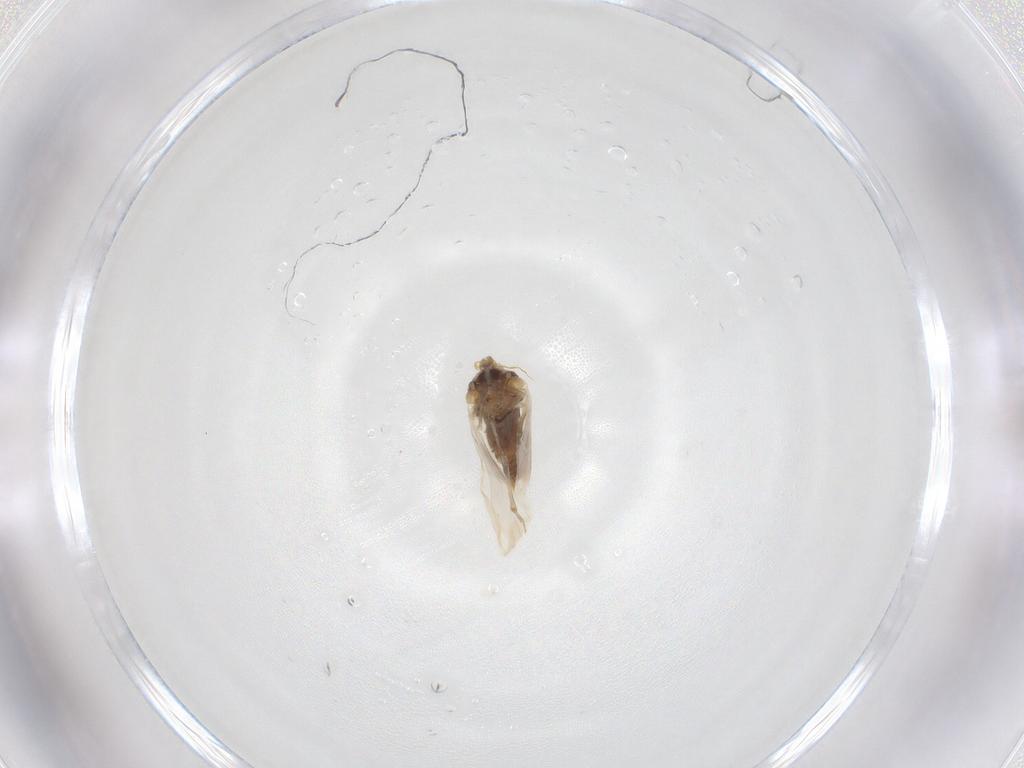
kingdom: Animalia
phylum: Arthropoda
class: Insecta
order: Hemiptera
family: Aleyrodidae
